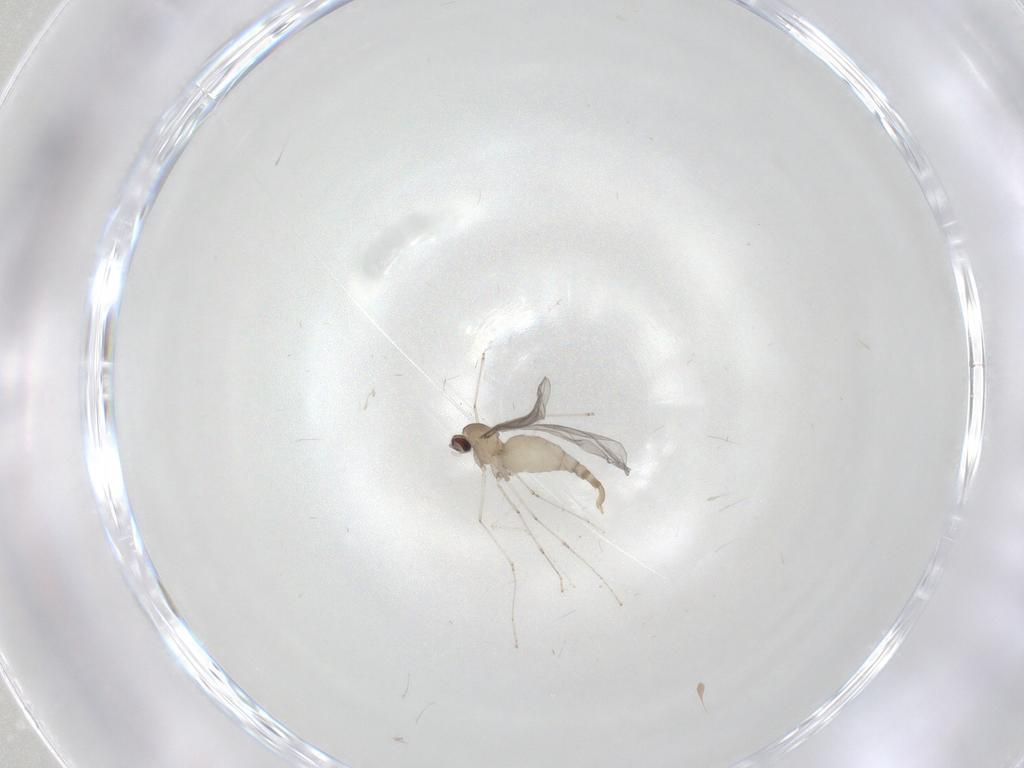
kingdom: Animalia
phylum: Arthropoda
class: Insecta
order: Diptera
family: Cecidomyiidae
